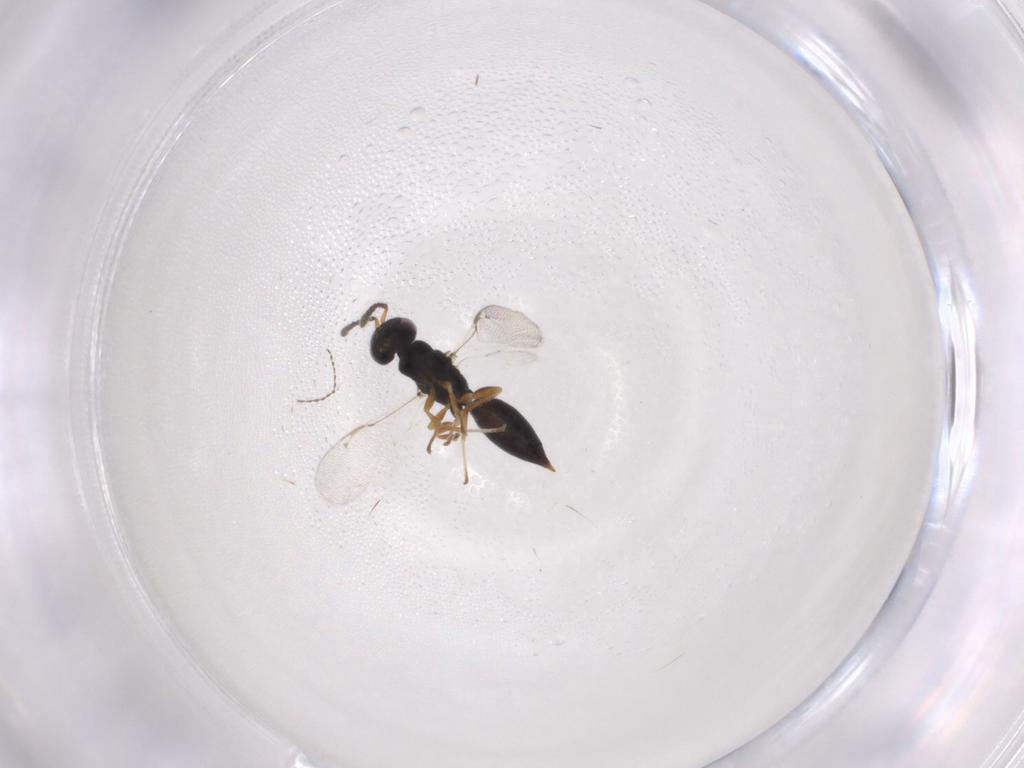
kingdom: Animalia
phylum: Arthropoda
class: Insecta
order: Hymenoptera
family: Eurytomidae
